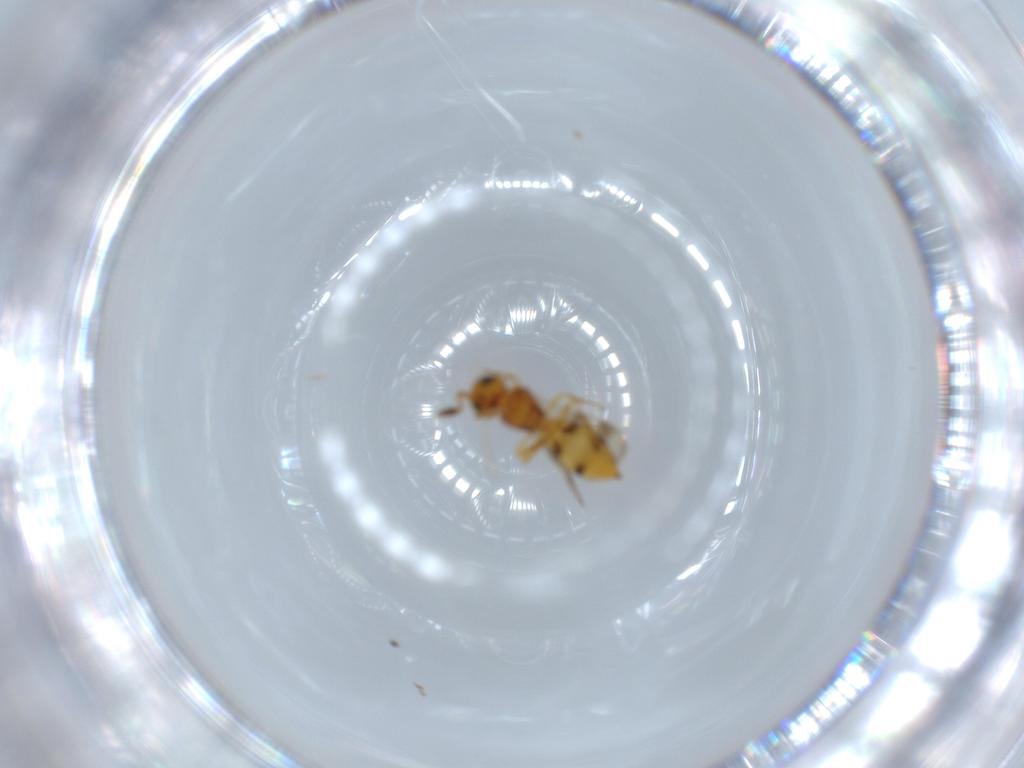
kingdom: Animalia
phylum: Arthropoda
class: Insecta
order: Hymenoptera
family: Scelionidae
